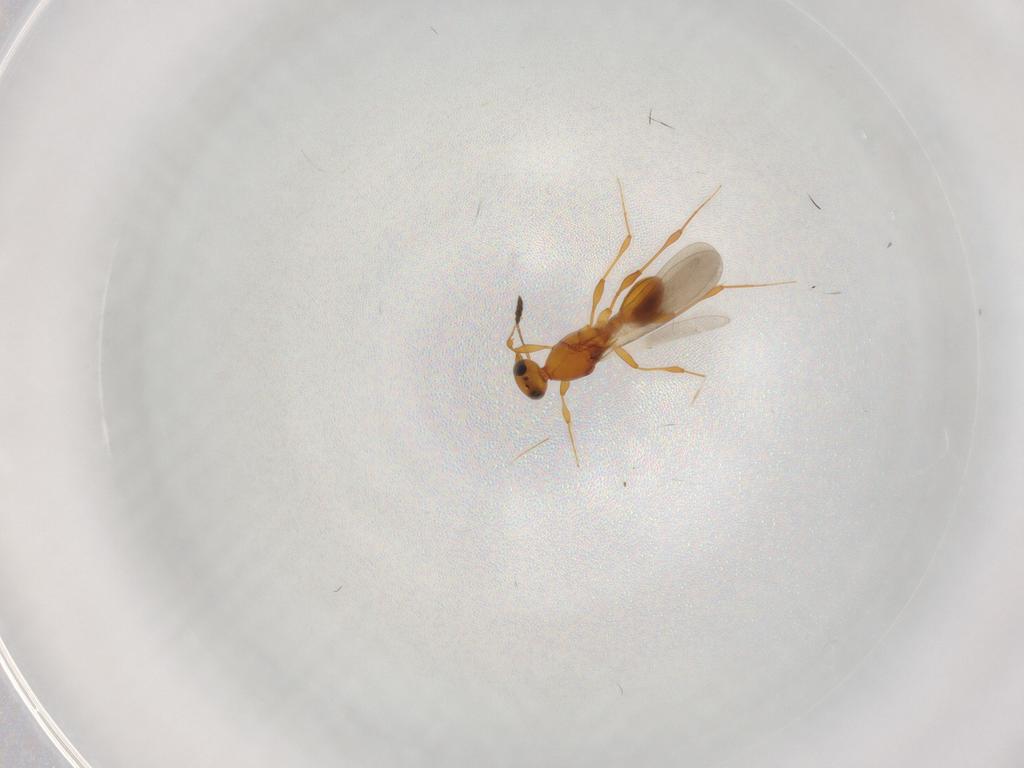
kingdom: Animalia
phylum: Arthropoda
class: Insecta
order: Hymenoptera
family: Platygastridae
